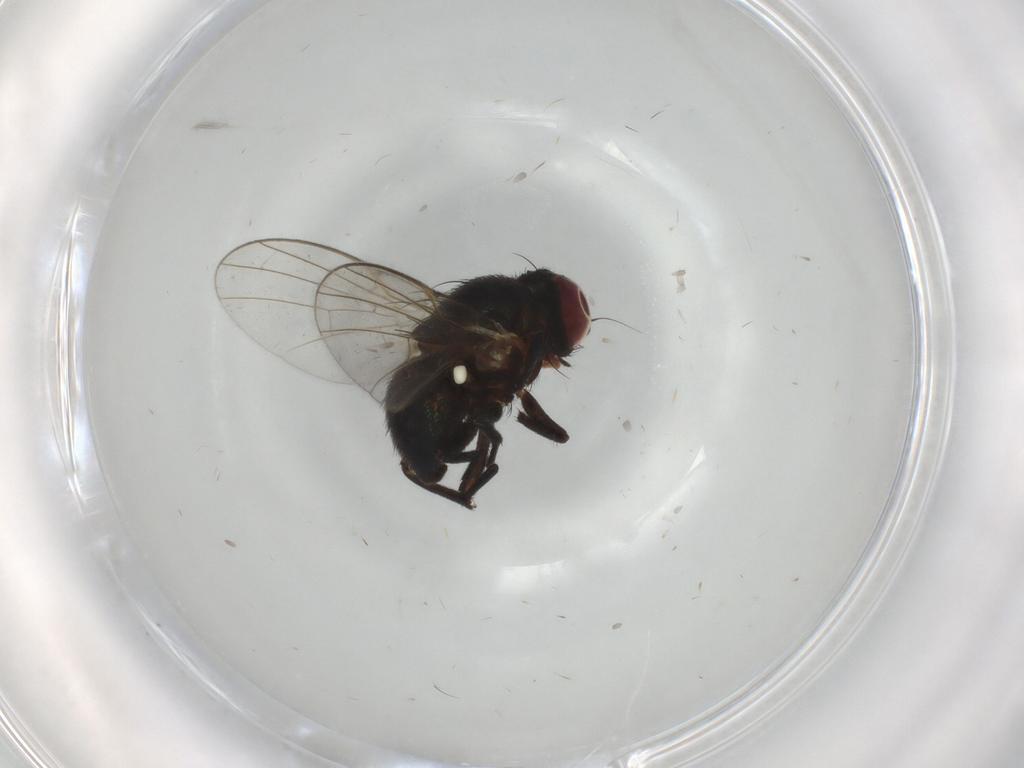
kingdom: Animalia
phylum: Arthropoda
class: Insecta
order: Diptera
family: Agromyzidae
